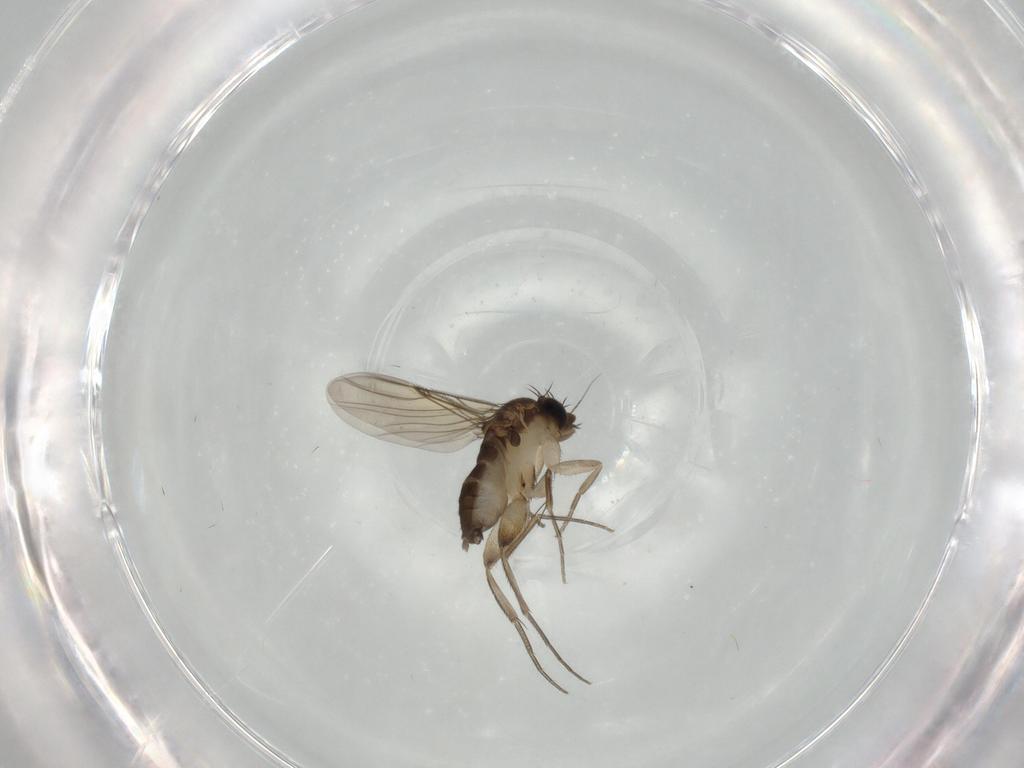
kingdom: Animalia
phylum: Arthropoda
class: Insecta
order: Diptera
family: Phoridae
